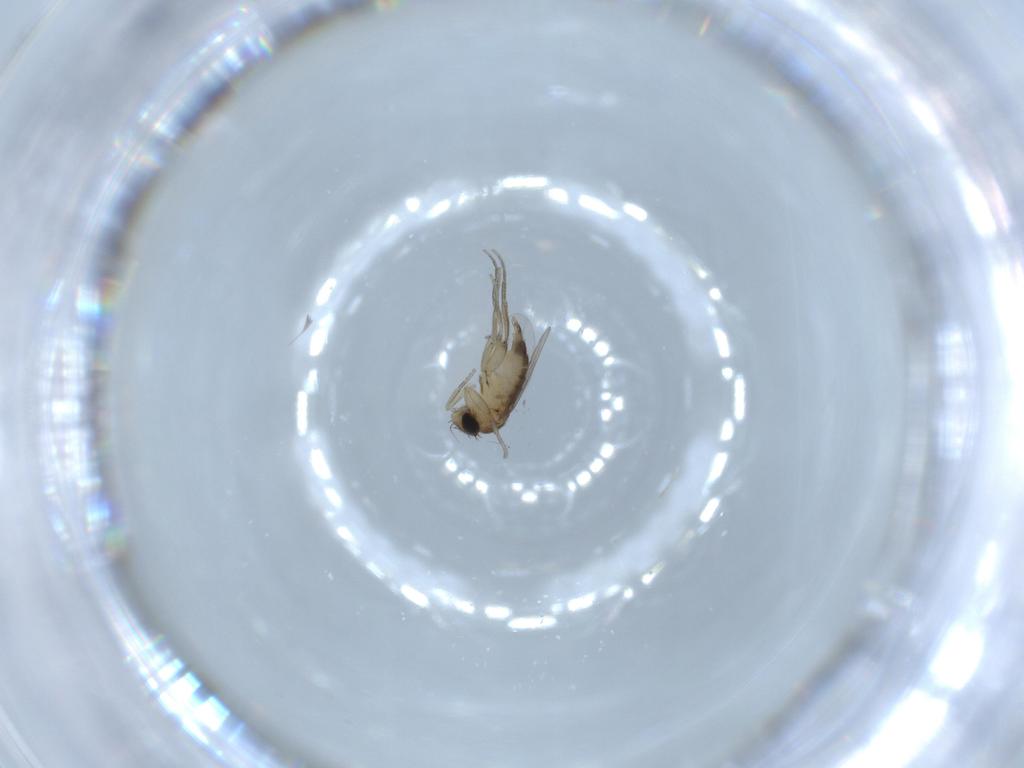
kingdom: Animalia
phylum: Arthropoda
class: Insecta
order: Diptera
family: Phoridae
